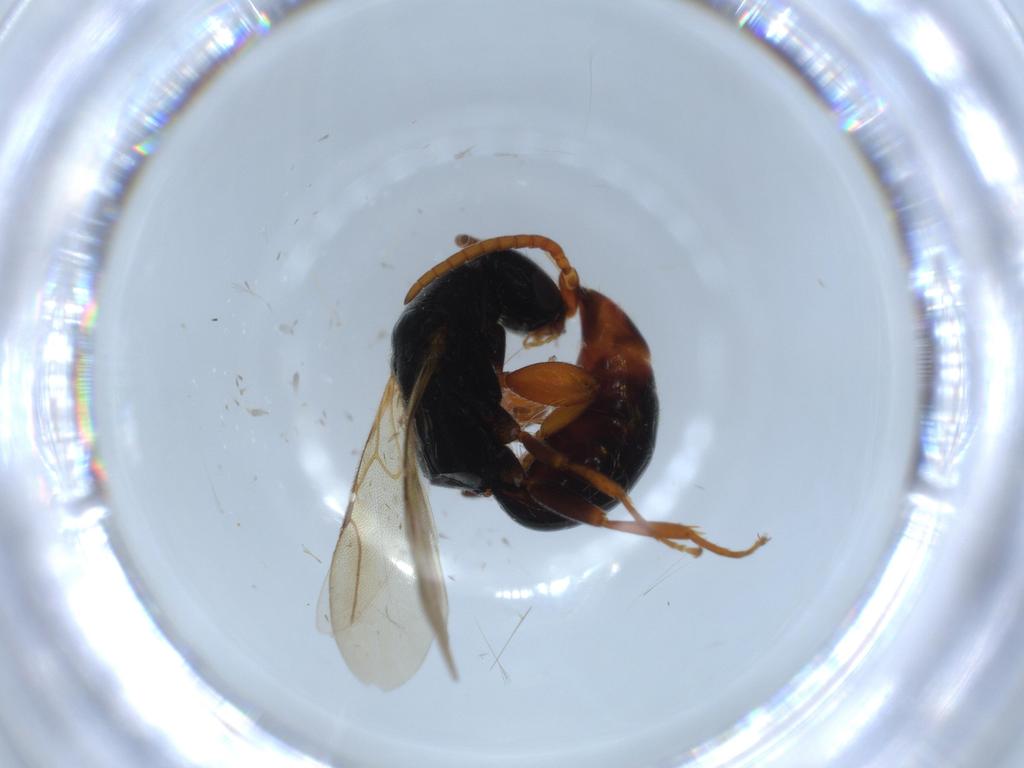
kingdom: Animalia
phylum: Arthropoda
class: Insecta
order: Hymenoptera
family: Bethylidae
